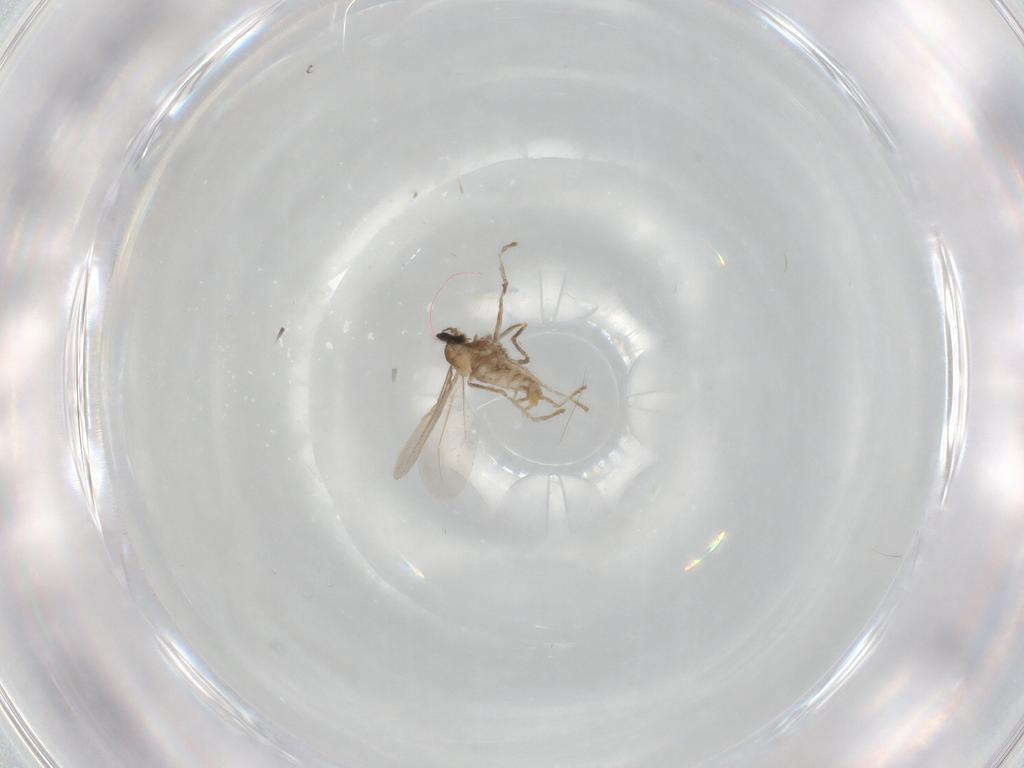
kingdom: Animalia
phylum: Arthropoda
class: Insecta
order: Diptera
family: Cecidomyiidae
